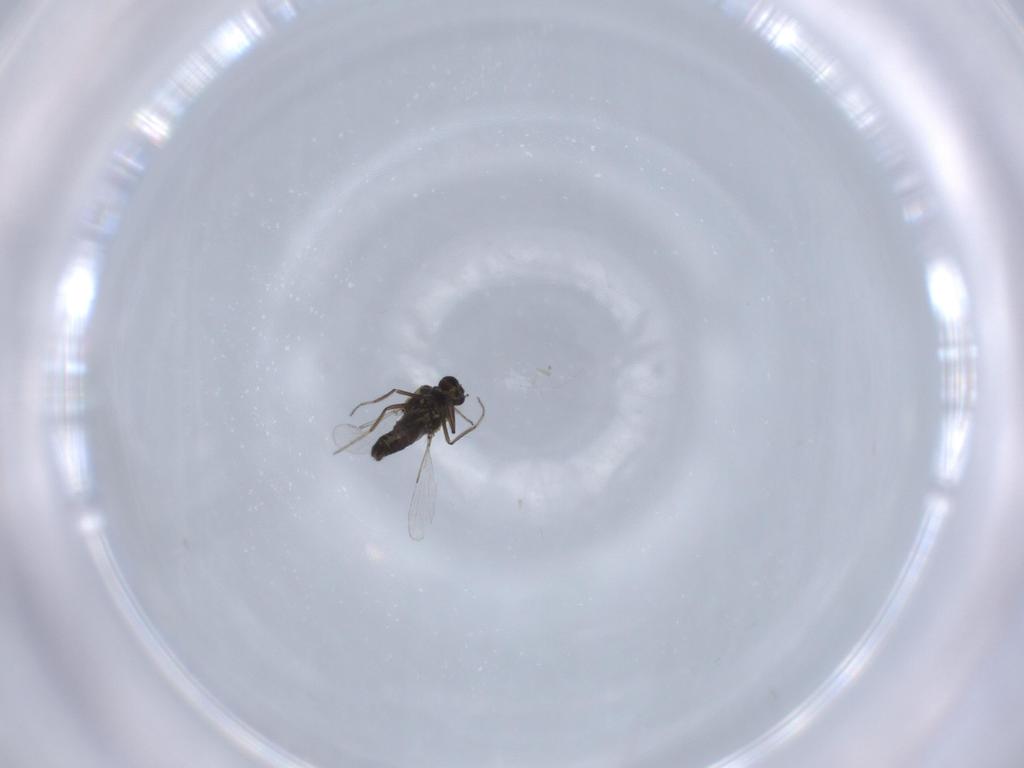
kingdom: Animalia
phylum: Arthropoda
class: Insecta
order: Diptera
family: Ceratopogonidae
